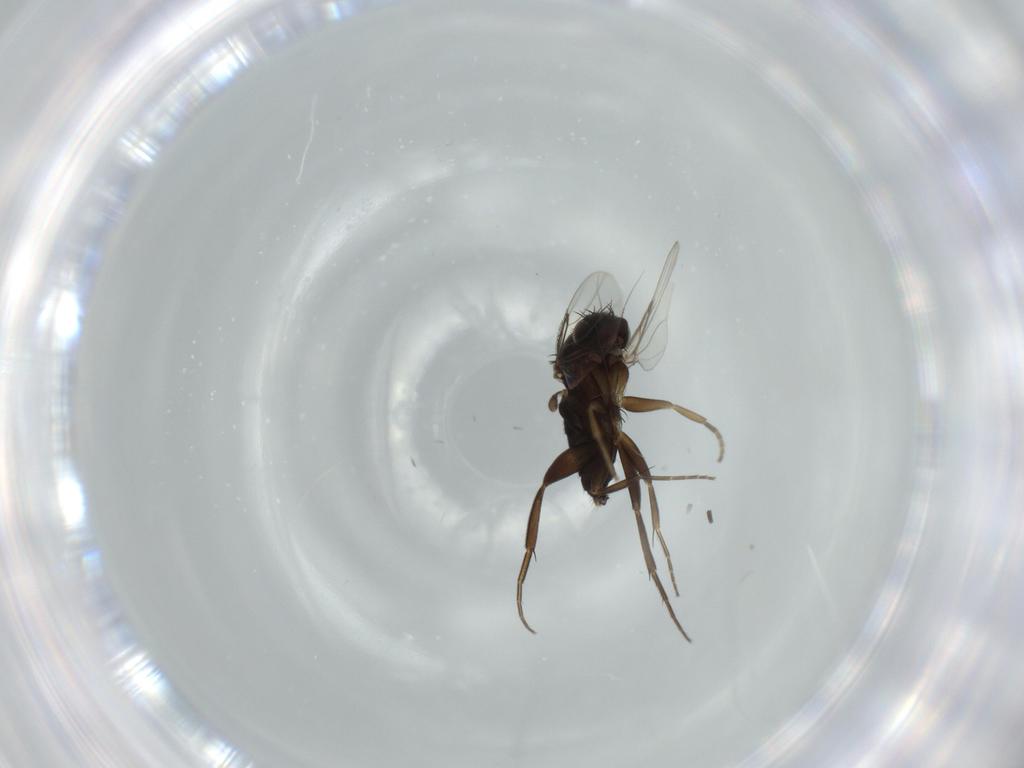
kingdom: Animalia
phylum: Arthropoda
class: Insecta
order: Diptera
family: Phoridae
